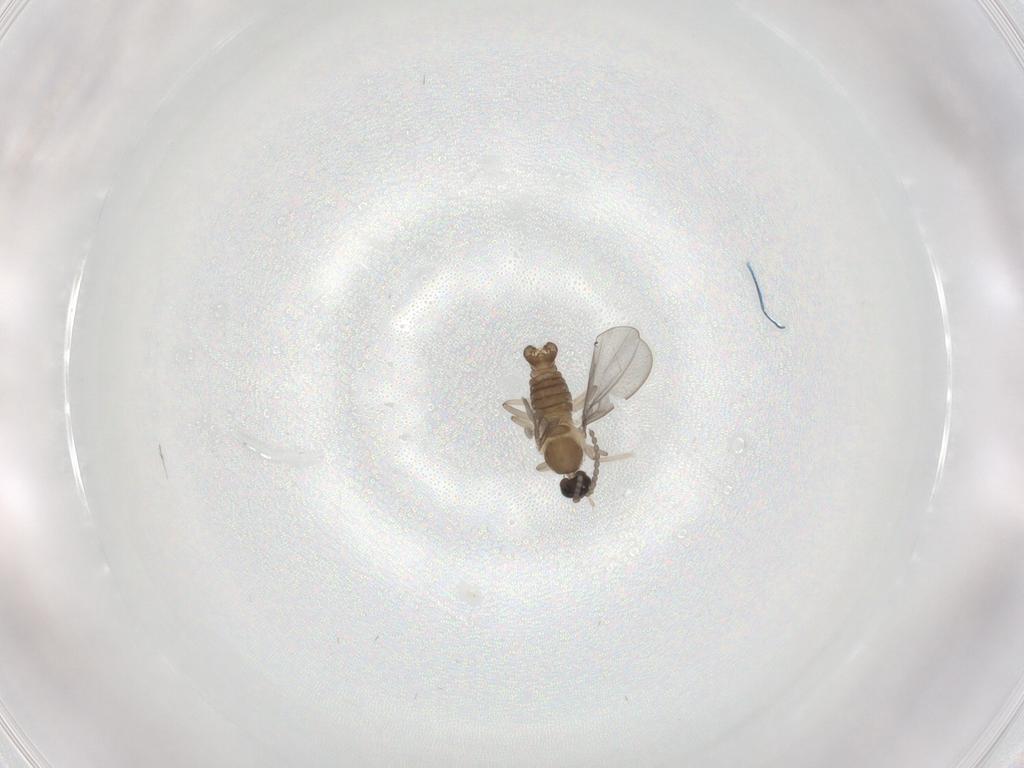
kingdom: Animalia
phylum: Arthropoda
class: Insecta
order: Diptera
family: Cecidomyiidae
